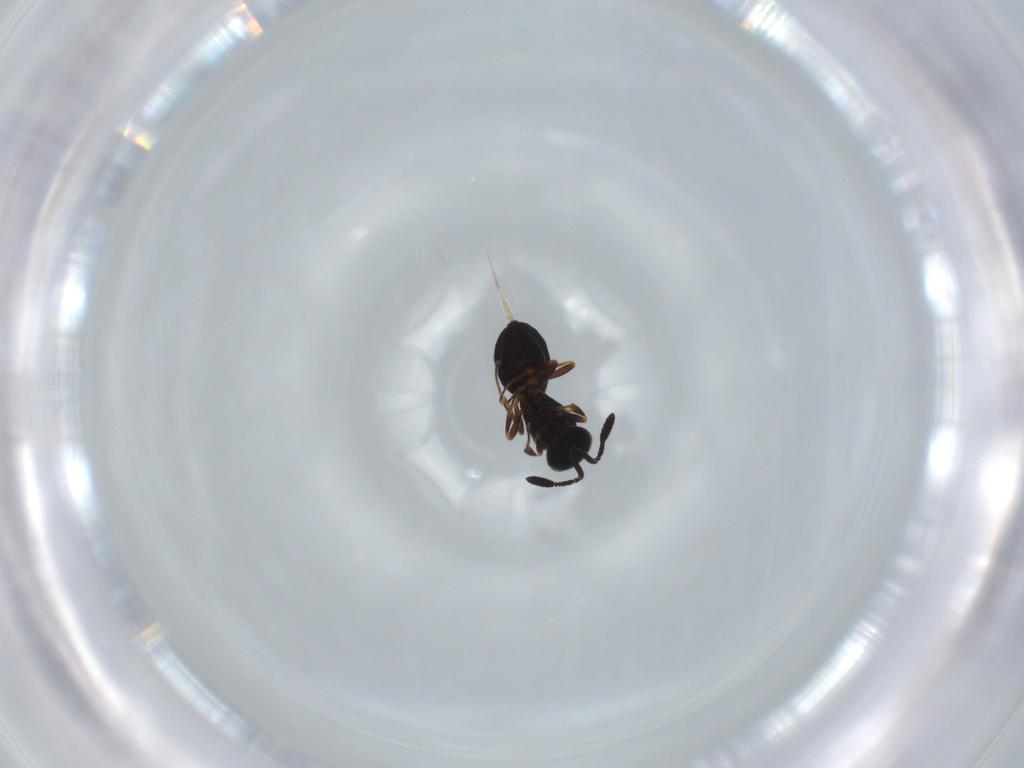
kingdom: Animalia
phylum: Arthropoda
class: Insecta
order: Hymenoptera
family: Scelionidae
